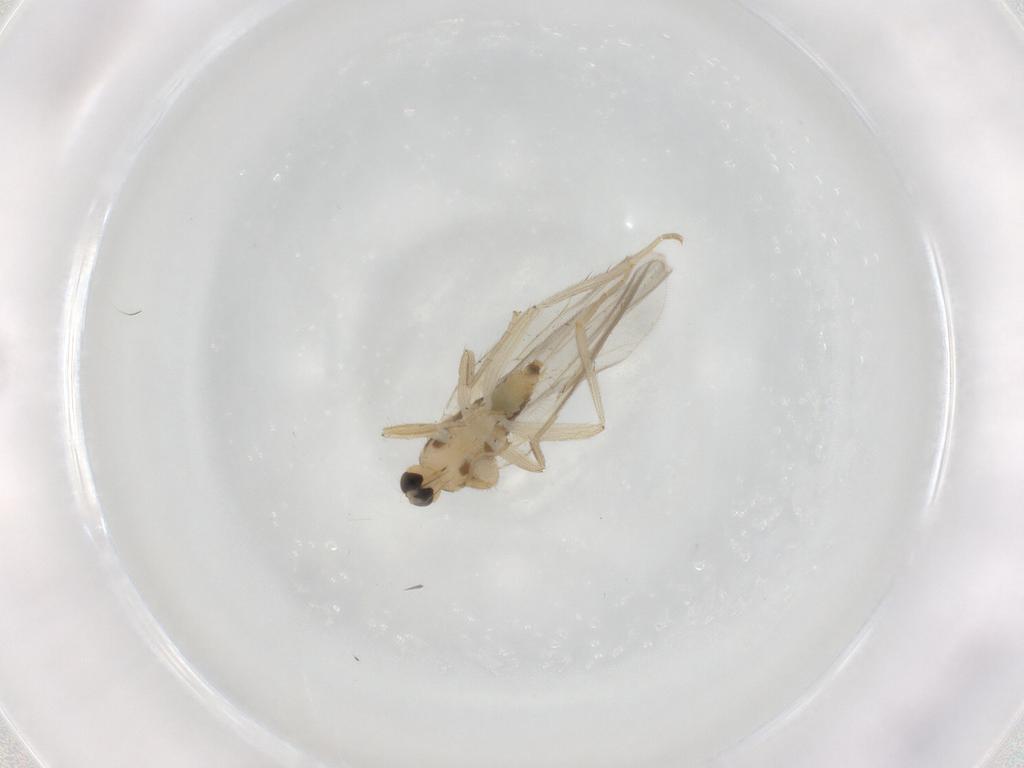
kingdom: Animalia
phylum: Arthropoda
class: Insecta
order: Diptera
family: Hybotidae
